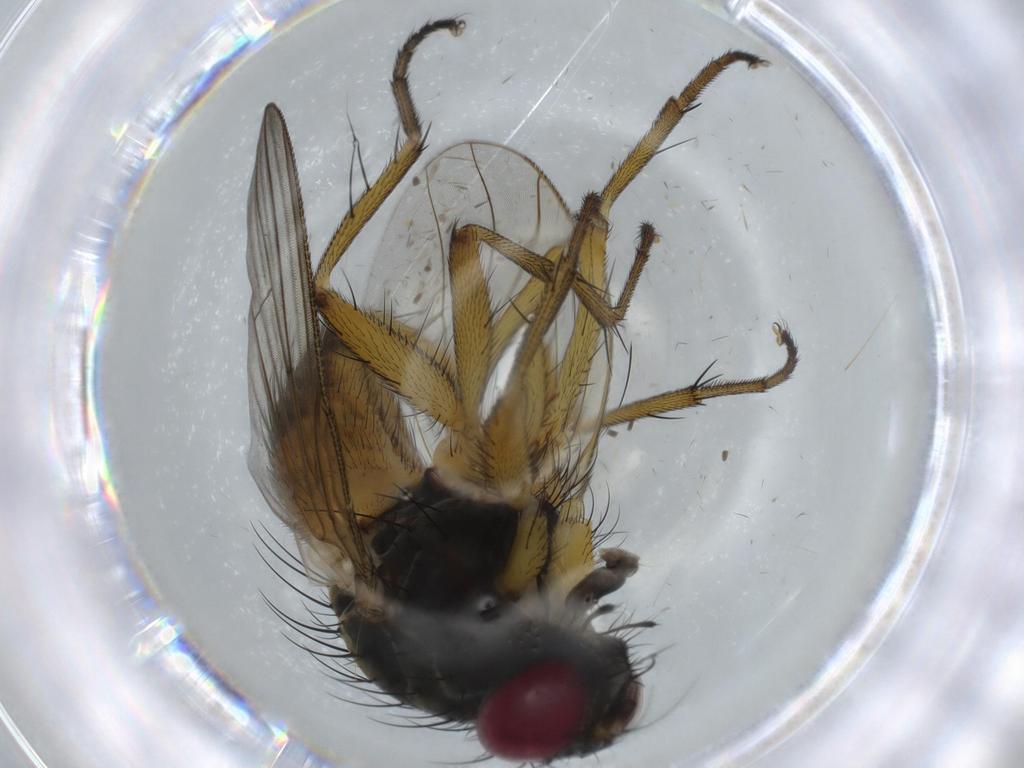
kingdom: Animalia
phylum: Arthropoda
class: Insecta
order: Diptera
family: Muscidae
